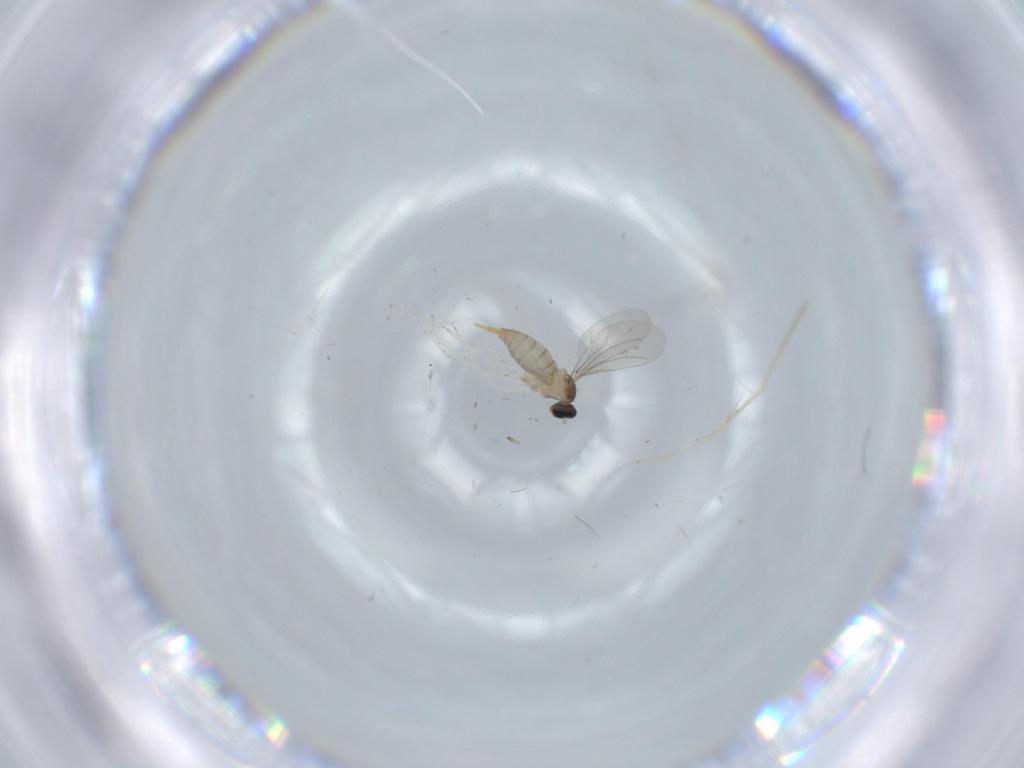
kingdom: Animalia
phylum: Arthropoda
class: Insecta
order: Diptera
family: Cecidomyiidae
